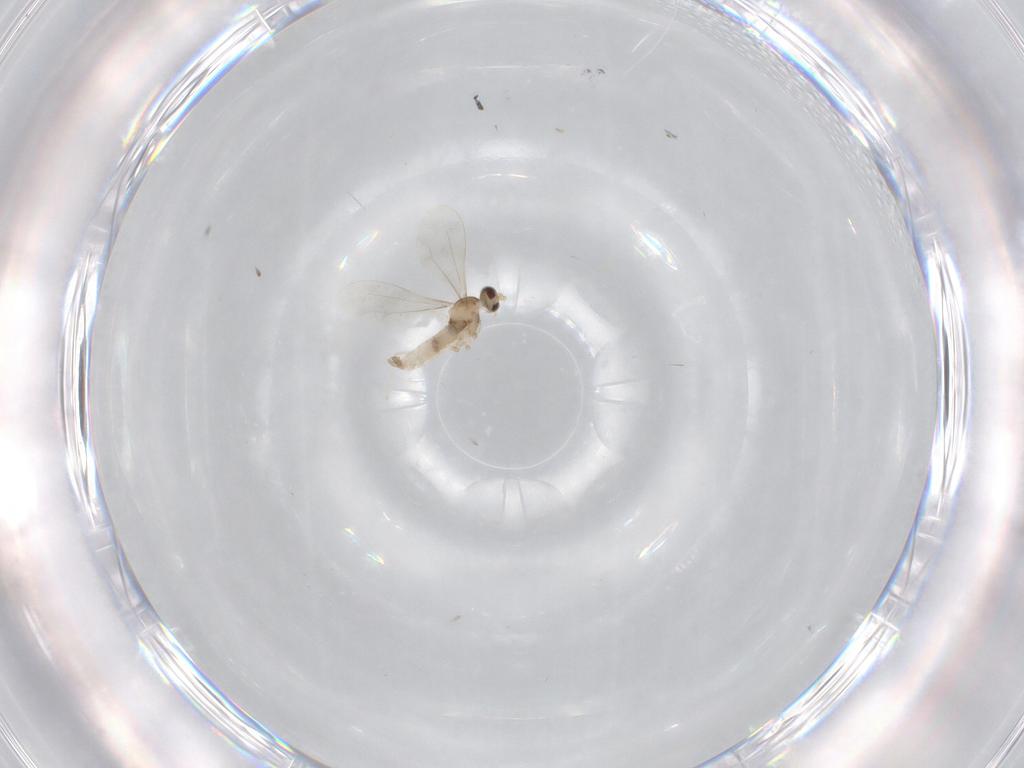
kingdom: Animalia
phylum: Arthropoda
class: Insecta
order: Diptera
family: Cecidomyiidae
